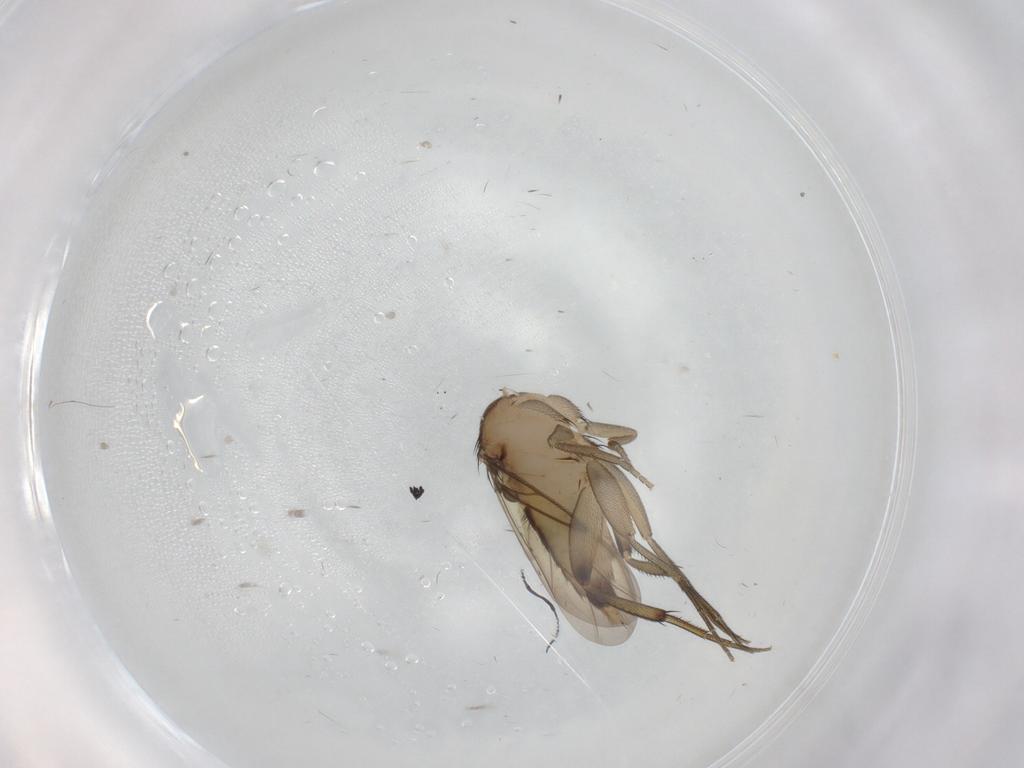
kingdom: Animalia
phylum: Arthropoda
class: Insecta
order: Diptera
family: Phoridae
